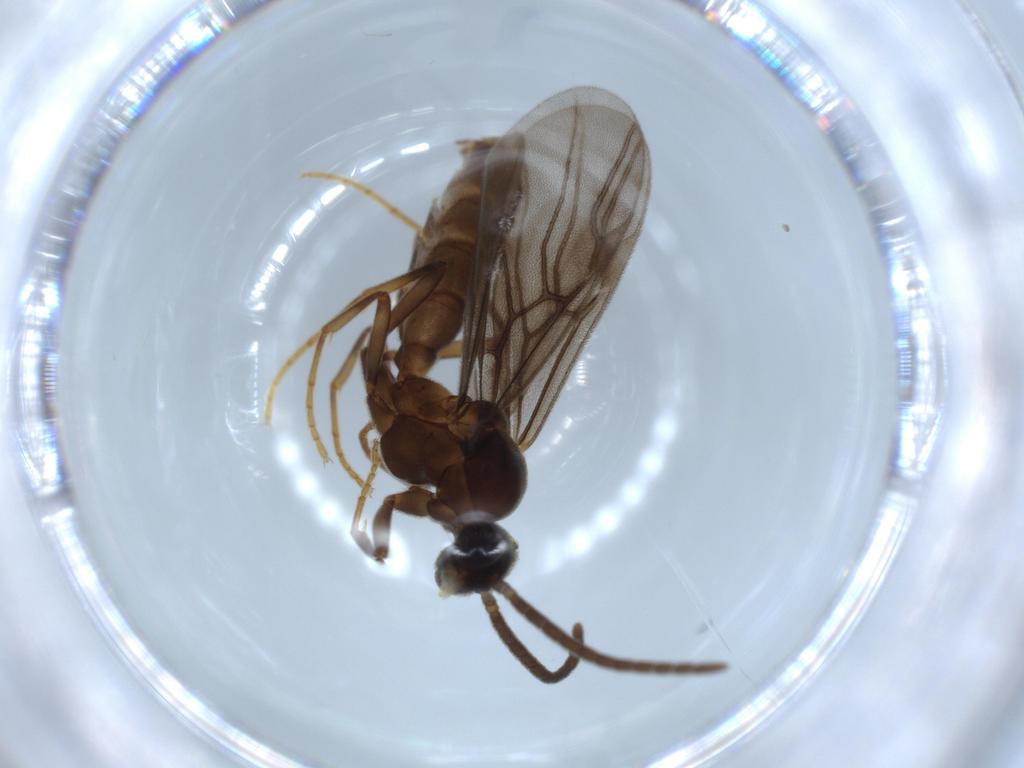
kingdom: Animalia
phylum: Arthropoda
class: Insecta
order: Hymenoptera
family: Formicidae
